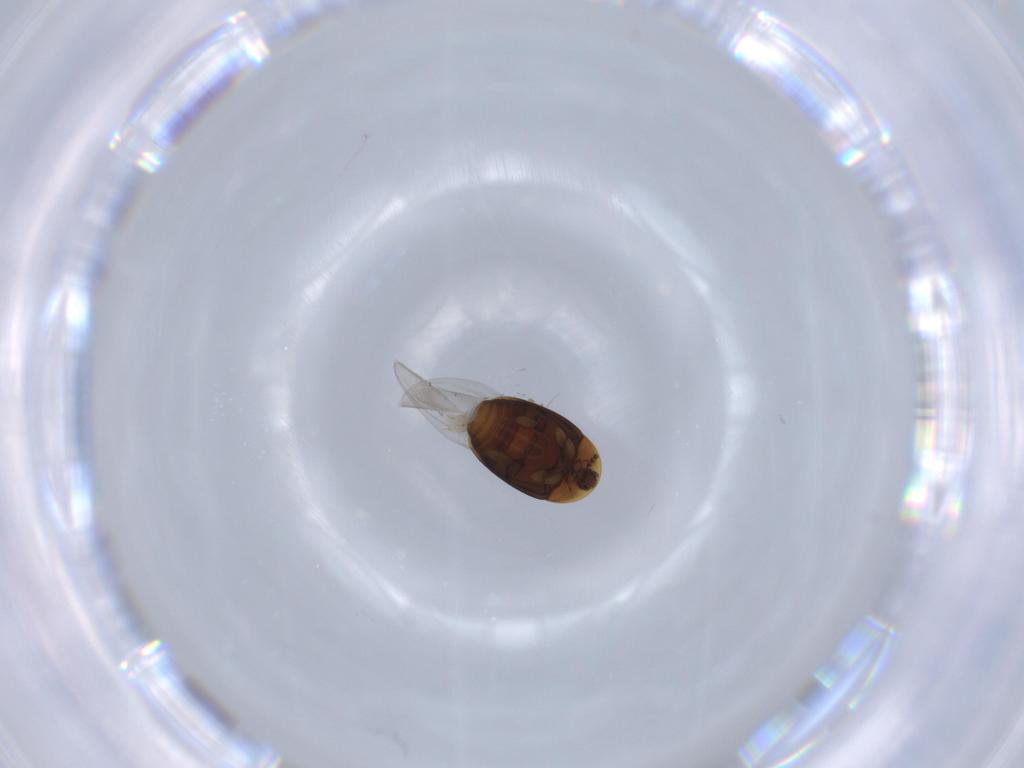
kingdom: Animalia
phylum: Arthropoda
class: Insecta
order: Coleoptera
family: Corylophidae
